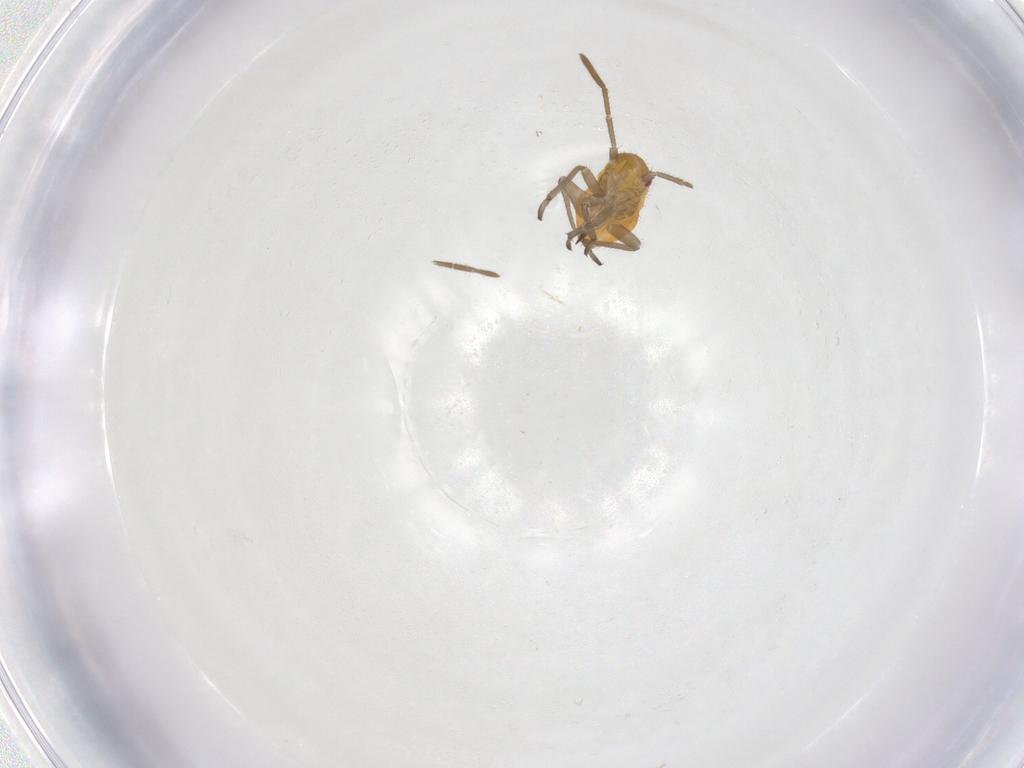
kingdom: Animalia
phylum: Arthropoda
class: Insecta
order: Hemiptera
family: Miridae
